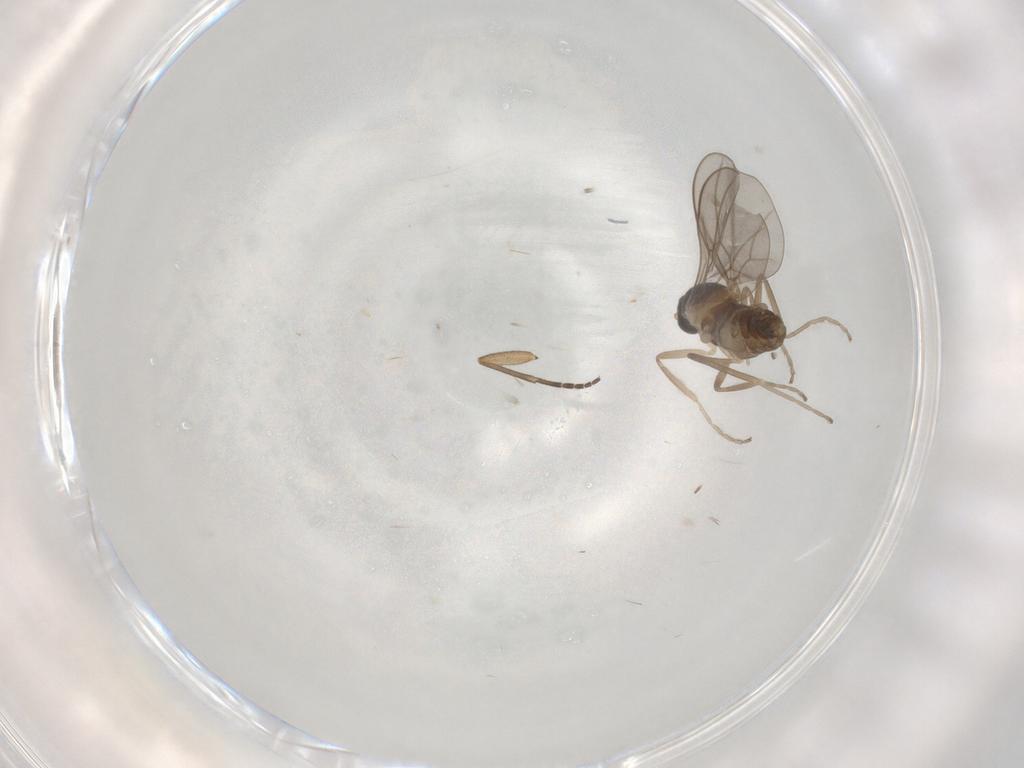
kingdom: Animalia
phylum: Arthropoda
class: Insecta
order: Diptera
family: Cecidomyiidae
